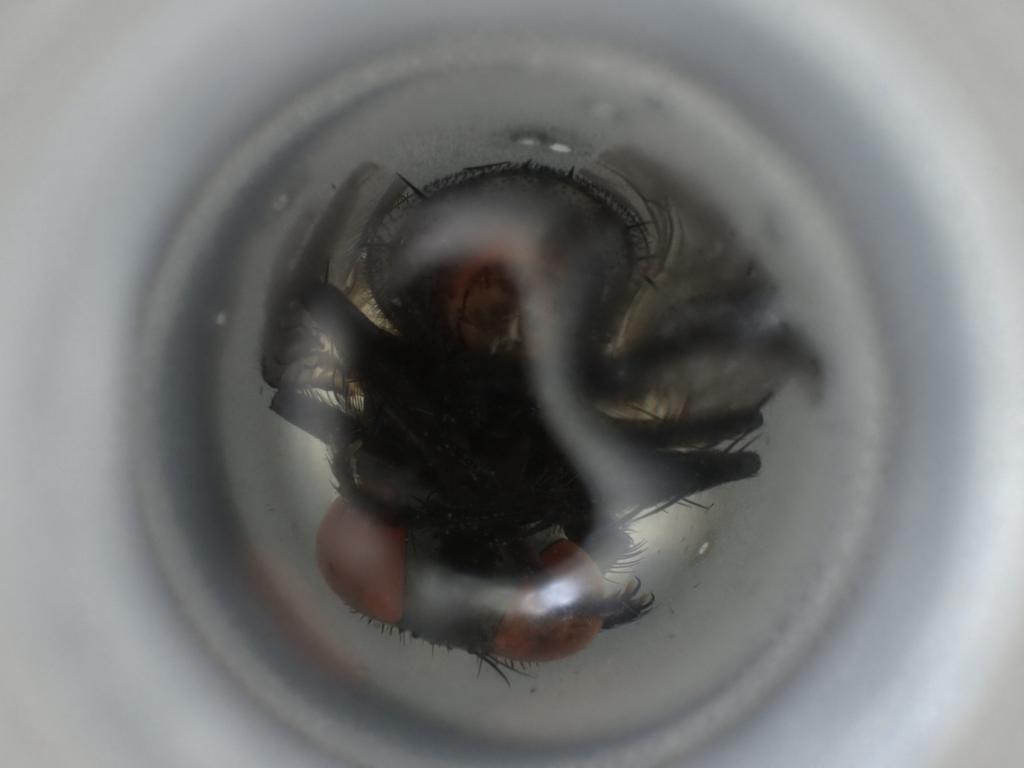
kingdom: Animalia
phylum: Arthropoda
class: Insecta
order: Diptera
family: Sarcophagidae
